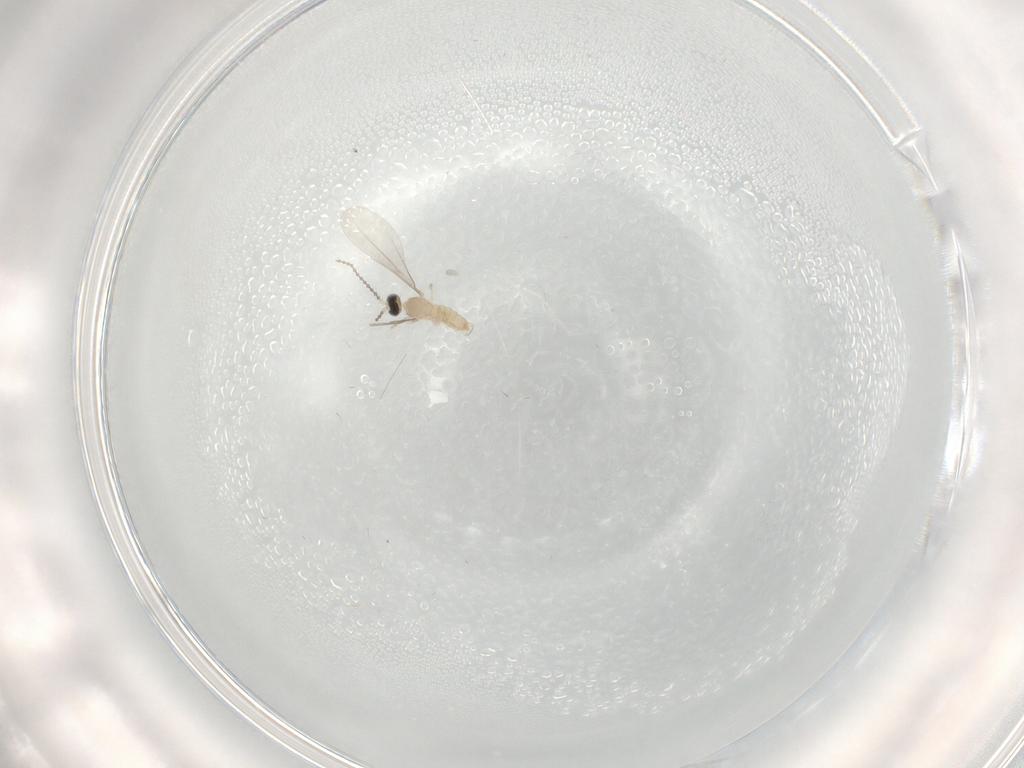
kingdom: Animalia
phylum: Arthropoda
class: Insecta
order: Diptera
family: Cecidomyiidae
